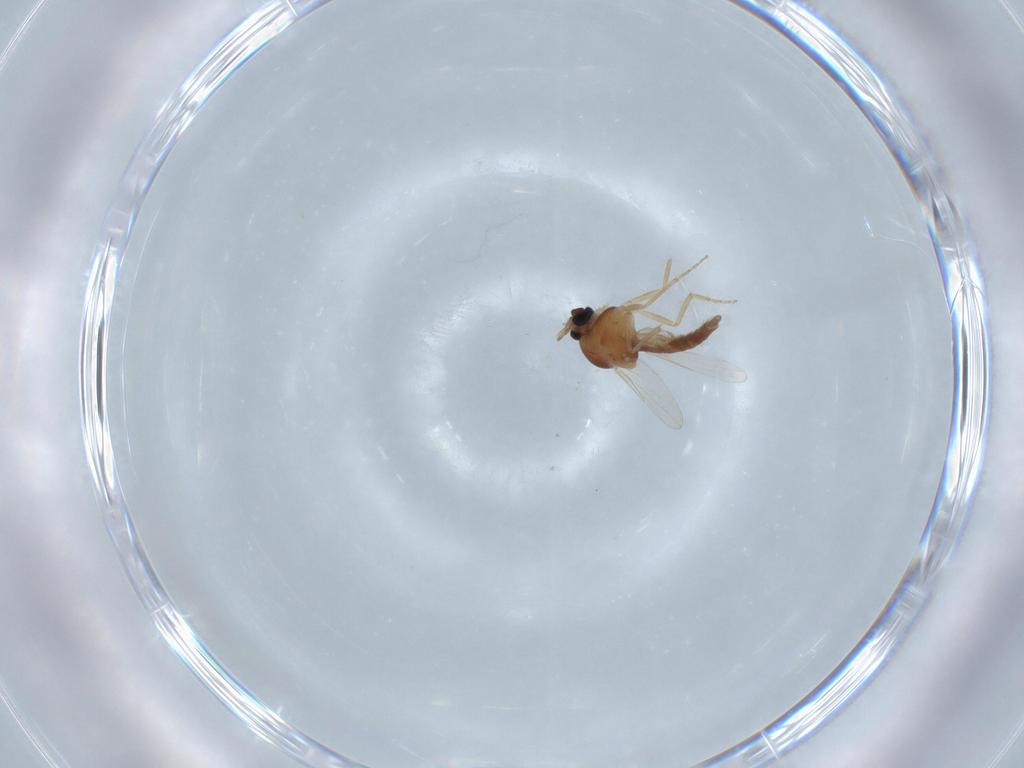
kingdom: Animalia
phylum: Arthropoda
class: Insecta
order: Diptera
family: Ceratopogonidae
